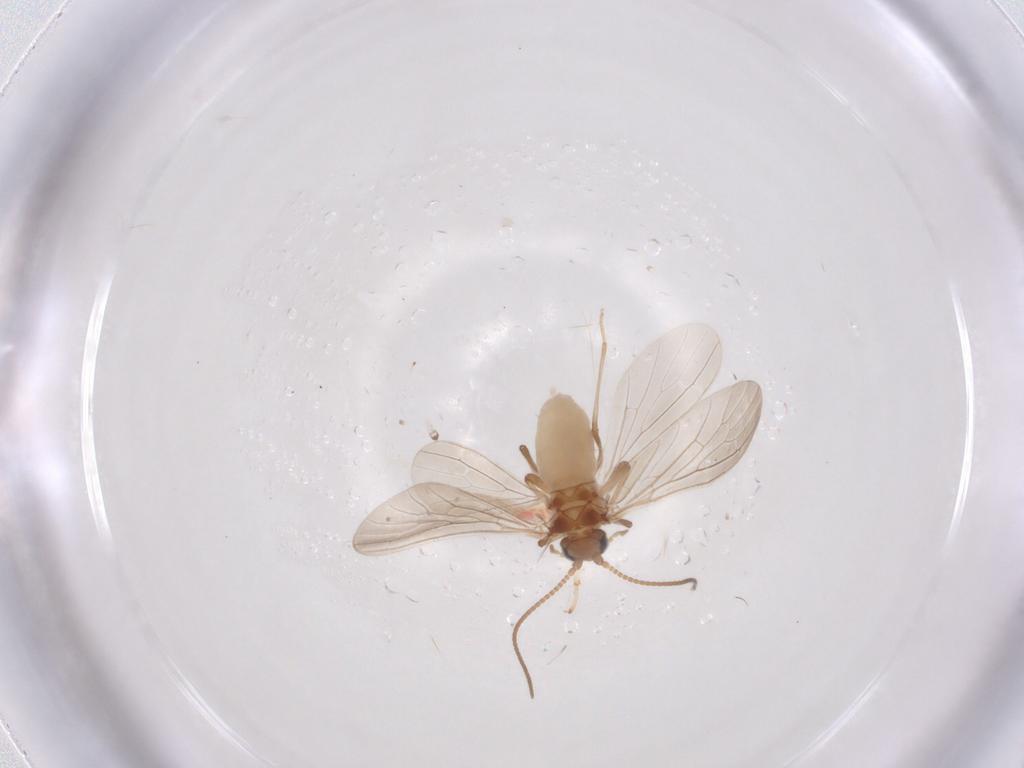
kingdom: Animalia
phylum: Arthropoda
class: Insecta
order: Neuroptera
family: Coniopterygidae
